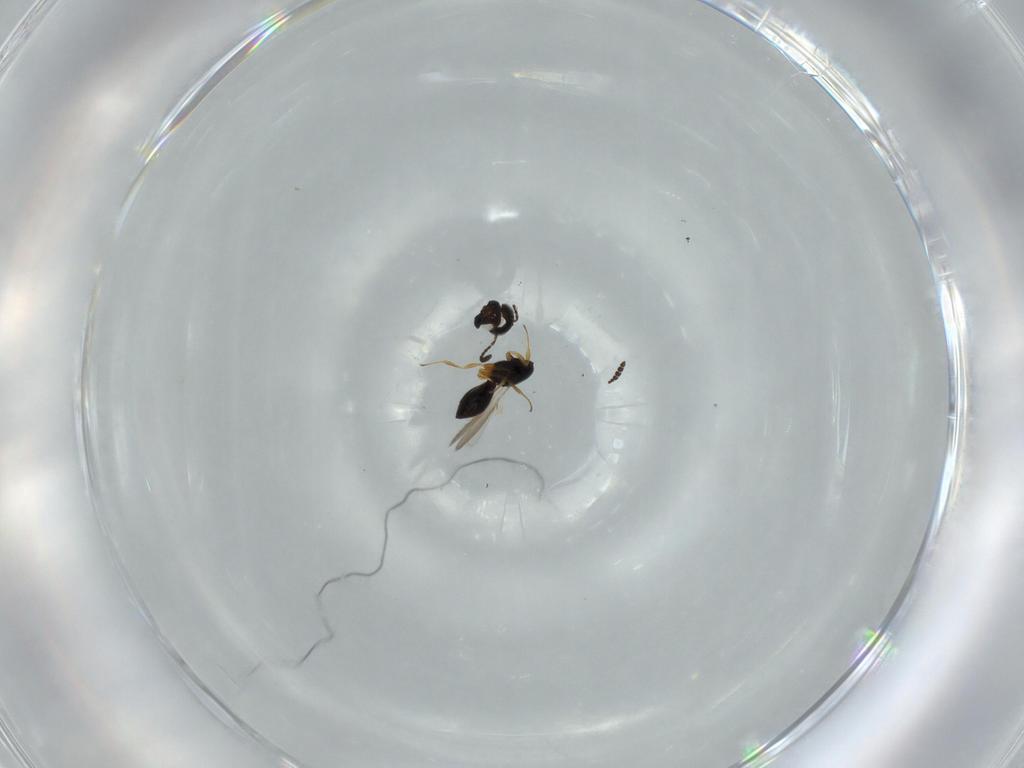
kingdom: Animalia
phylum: Arthropoda
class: Insecta
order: Hymenoptera
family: Scelionidae
